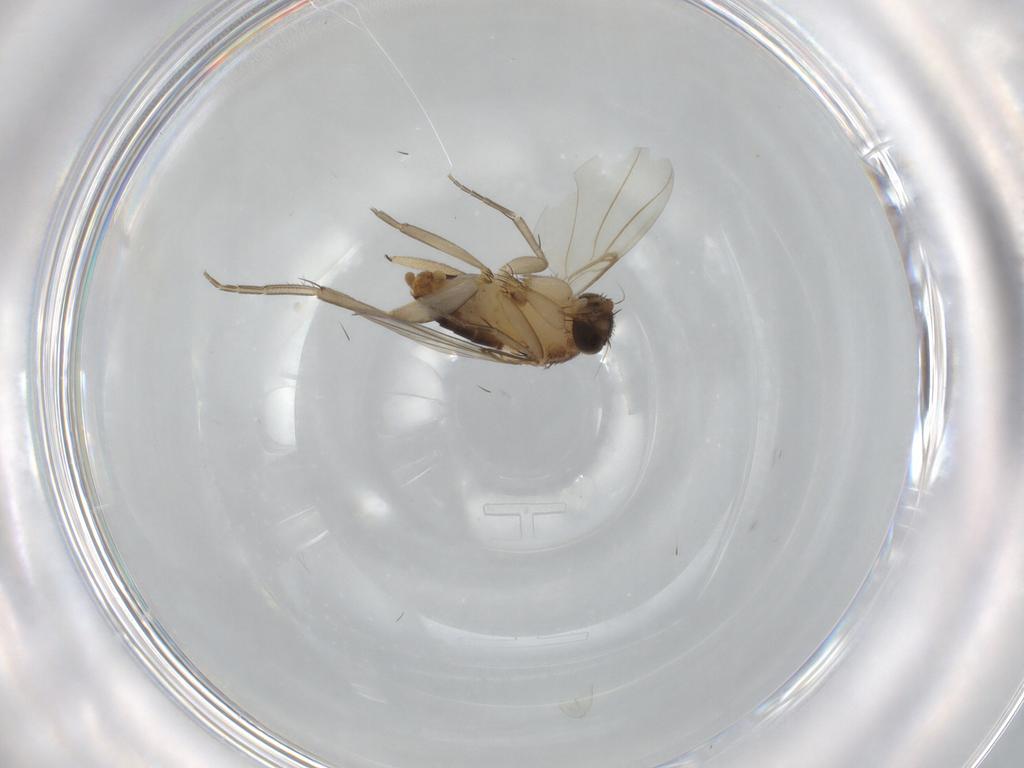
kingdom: Animalia
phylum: Arthropoda
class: Insecta
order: Diptera
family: Phoridae
